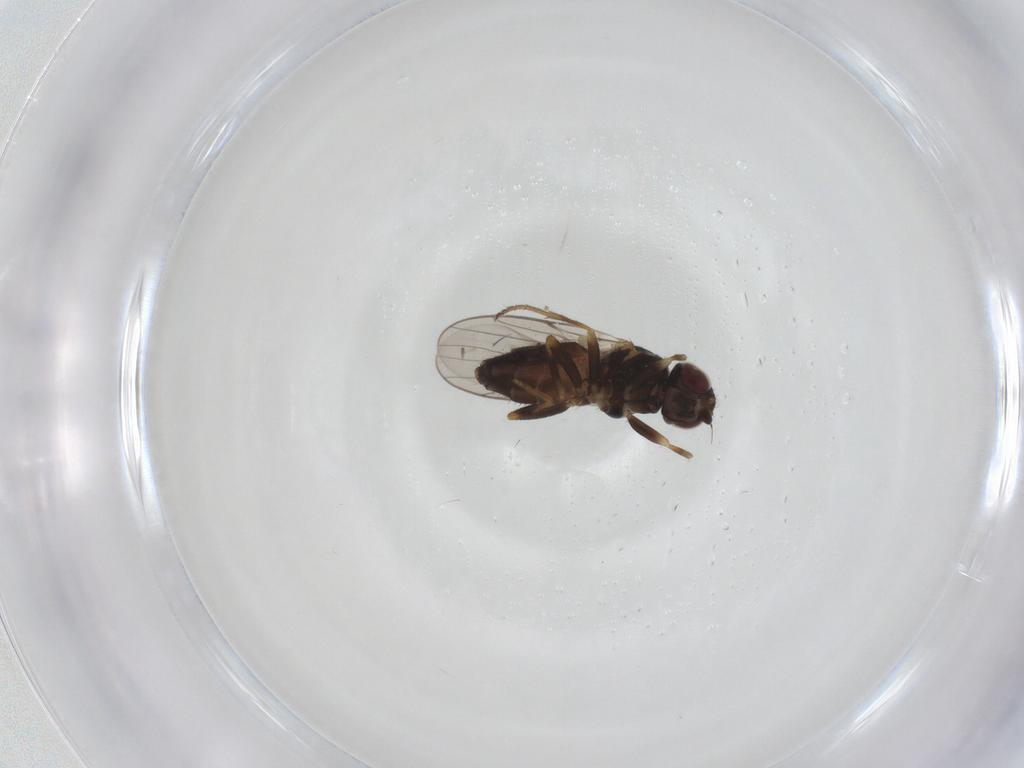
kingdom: Animalia
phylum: Arthropoda
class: Insecta
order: Diptera
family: Chloropidae
